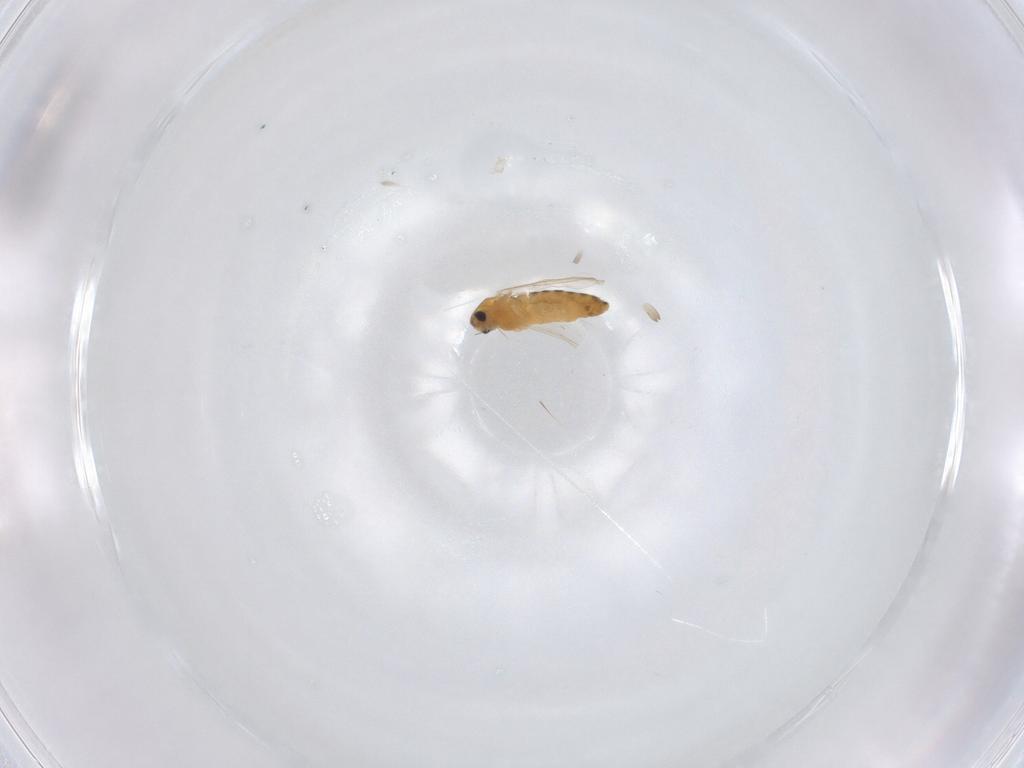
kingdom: Animalia
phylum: Arthropoda
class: Insecta
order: Diptera
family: Chironomidae
